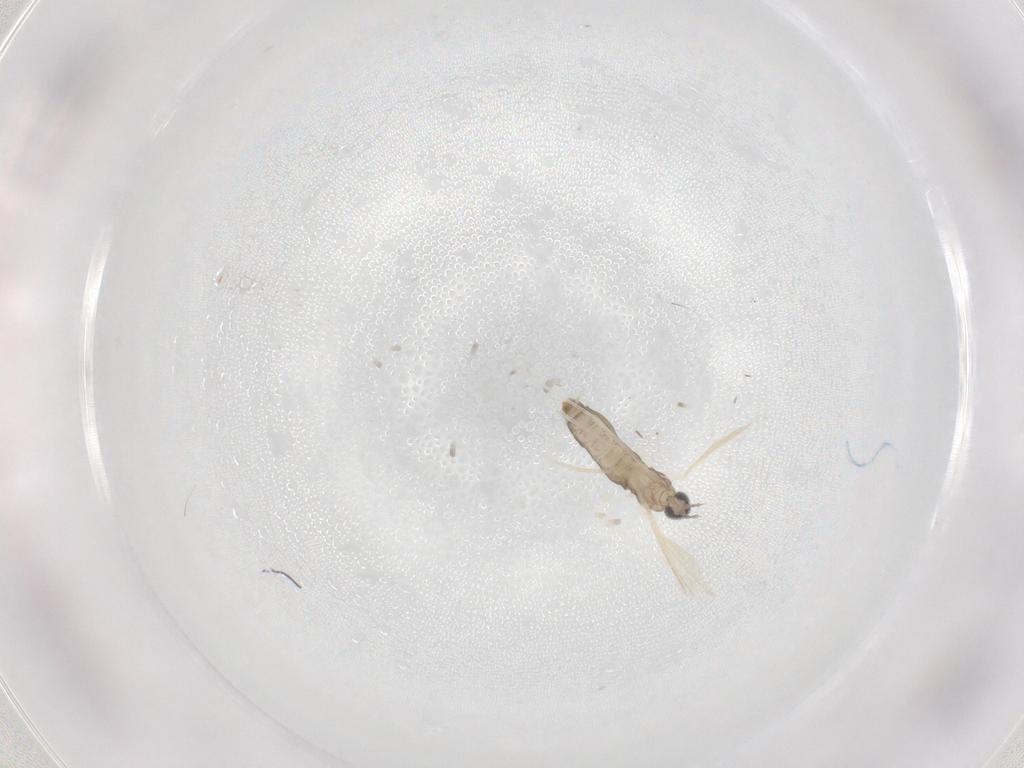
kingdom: Animalia
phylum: Arthropoda
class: Insecta
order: Diptera
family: Cecidomyiidae
